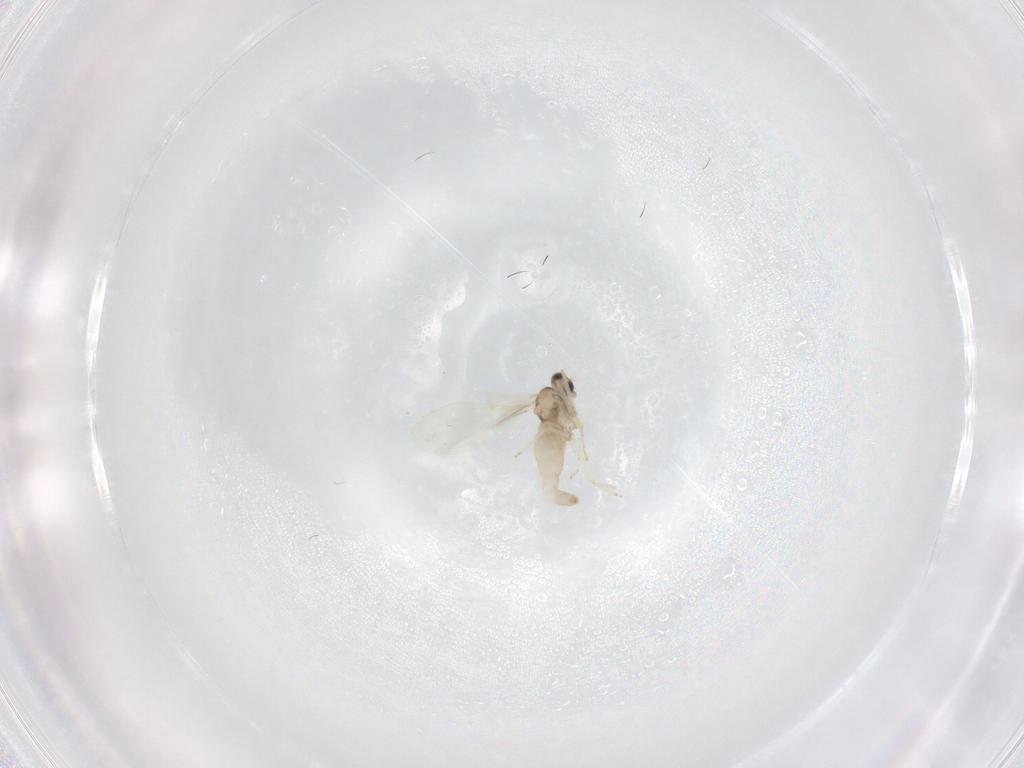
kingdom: Animalia
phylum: Arthropoda
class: Insecta
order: Diptera
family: Cecidomyiidae
